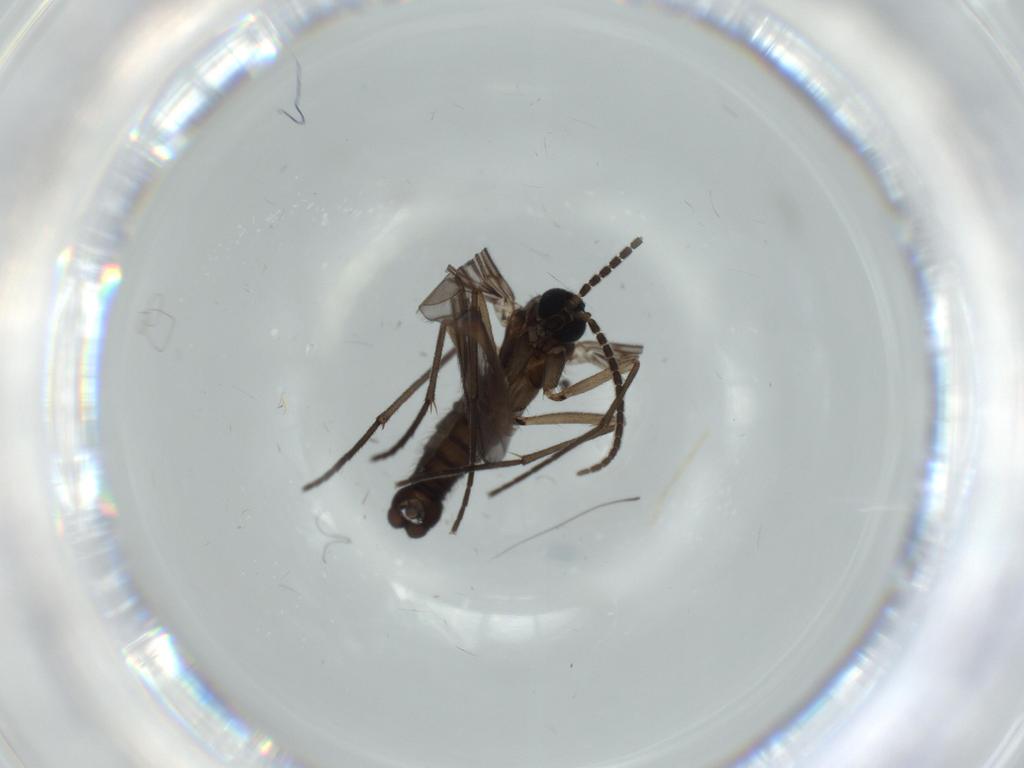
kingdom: Animalia
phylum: Arthropoda
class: Insecta
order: Diptera
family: Sciaridae
